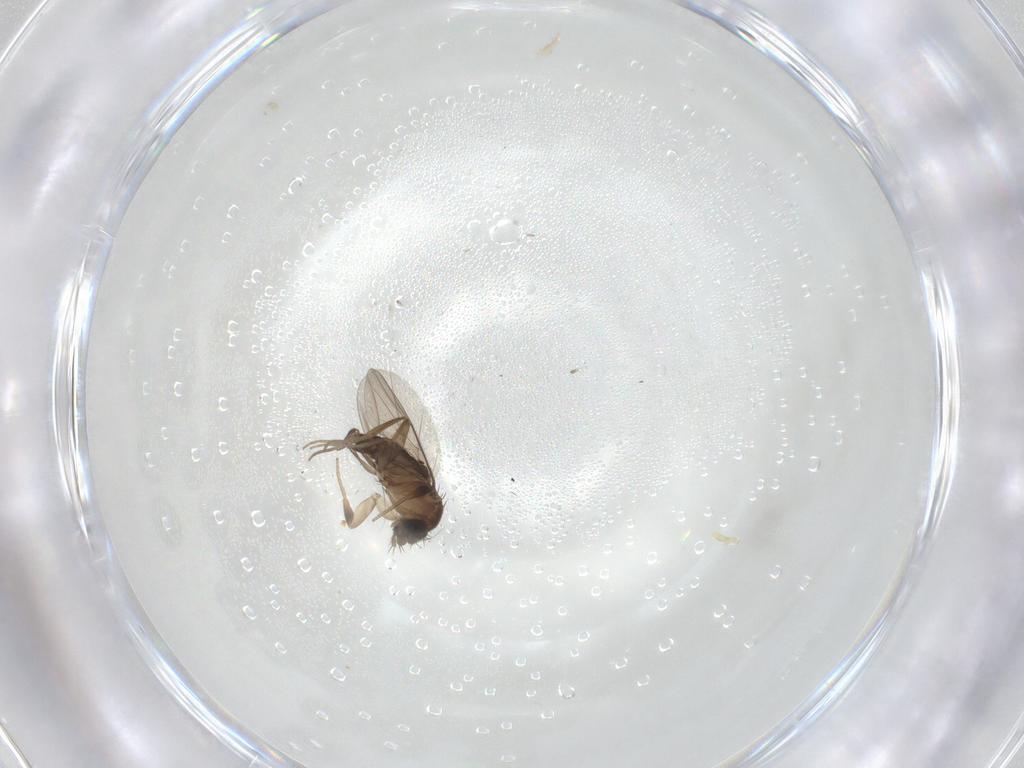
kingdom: Animalia
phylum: Arthropoda
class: Insecta
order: Diptera
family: Phoridae
